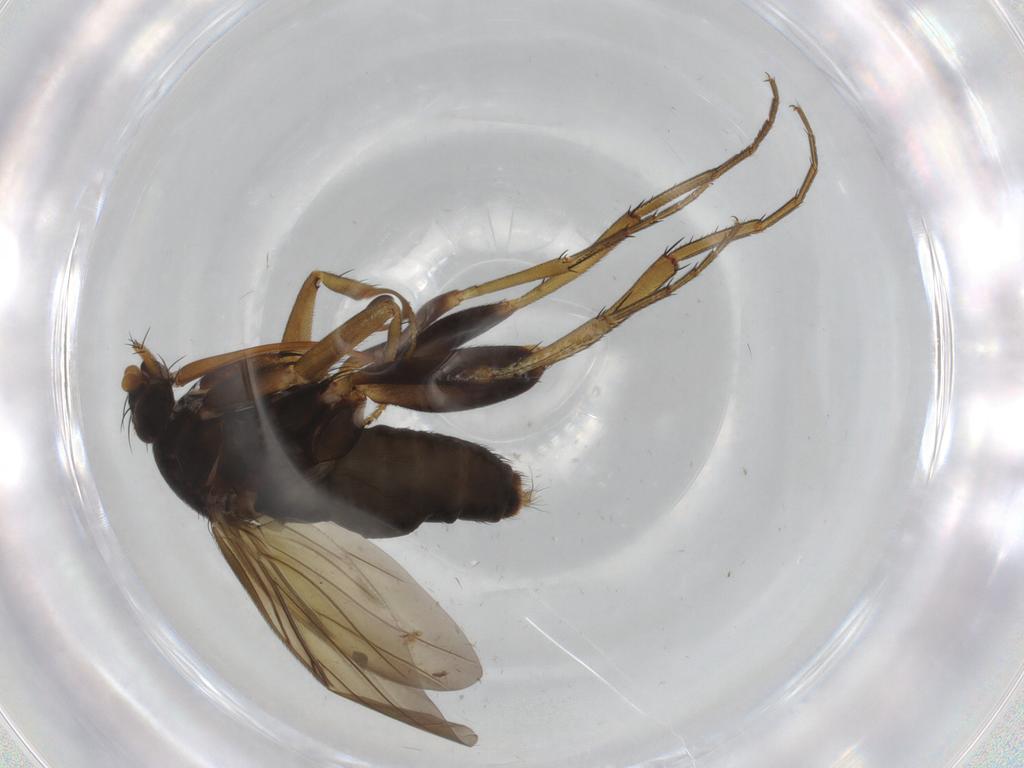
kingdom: Animalia
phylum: Arthropoda
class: Insecta
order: Diptera
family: Phoridae
